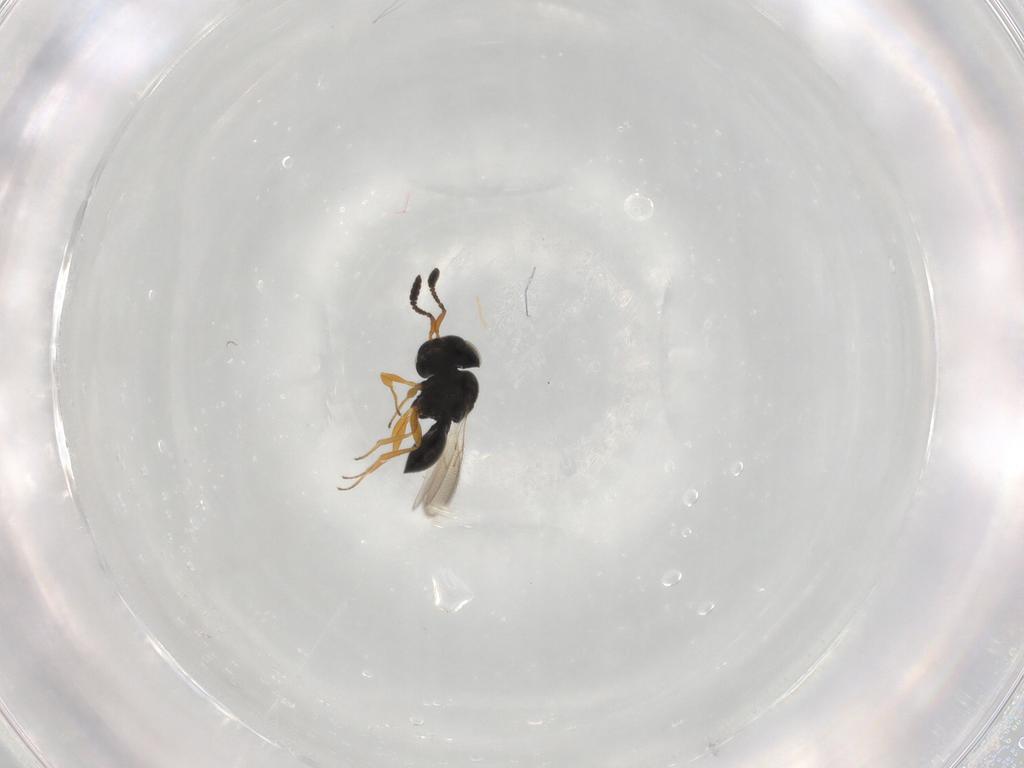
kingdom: Animalia
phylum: Arthropoda
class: Insecta
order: Hymenoptera
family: Scelionidae
